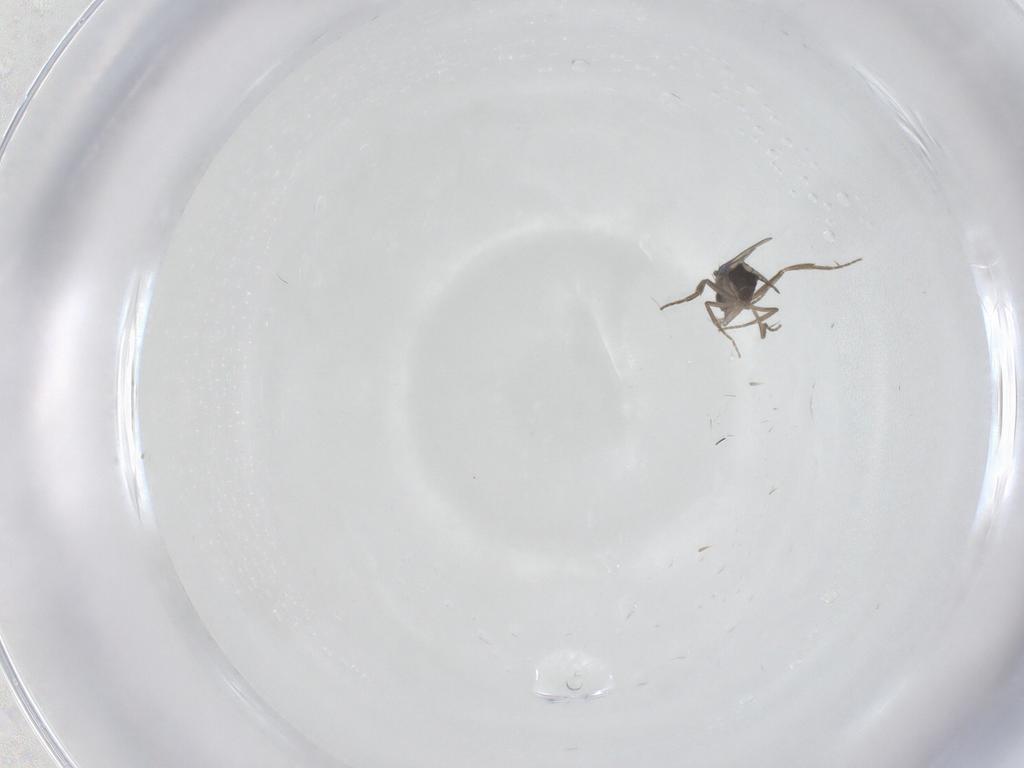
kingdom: Animalia
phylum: Arthropoda
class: Insecta
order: Diptera
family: Phoridae
